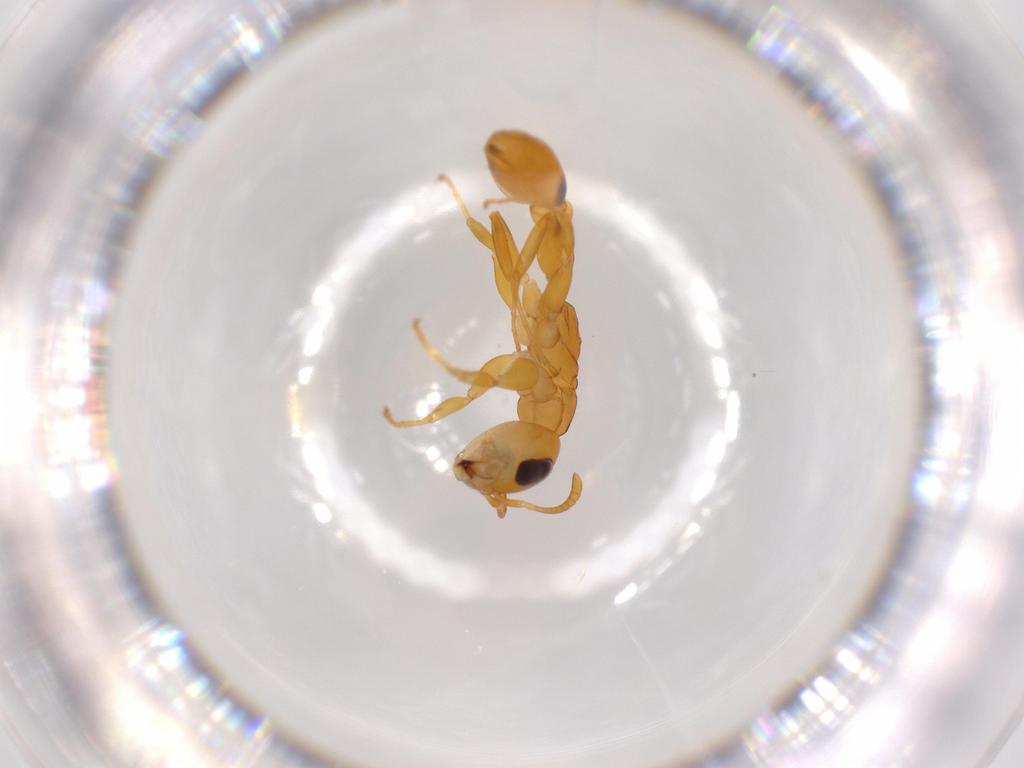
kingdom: Animalia
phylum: Arthropoda
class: Insecta
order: Hymenoptera
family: Formicidae
